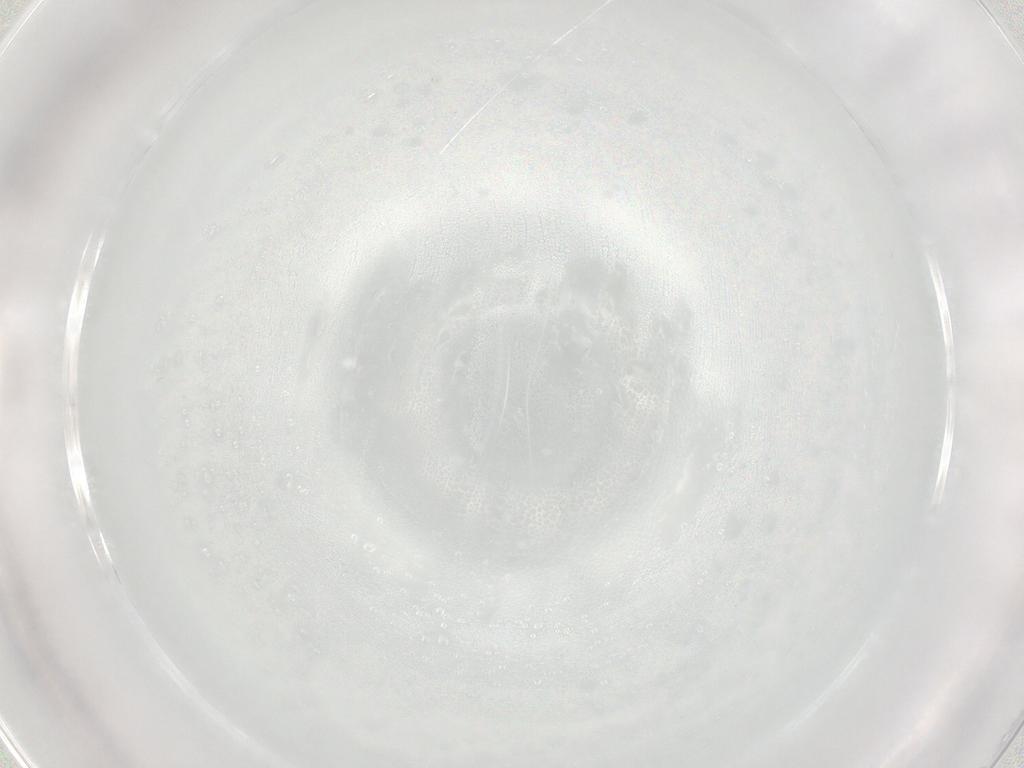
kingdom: Animalia
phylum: Arthropoda
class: Insecta
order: Diptera
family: Cecidomyiidae
